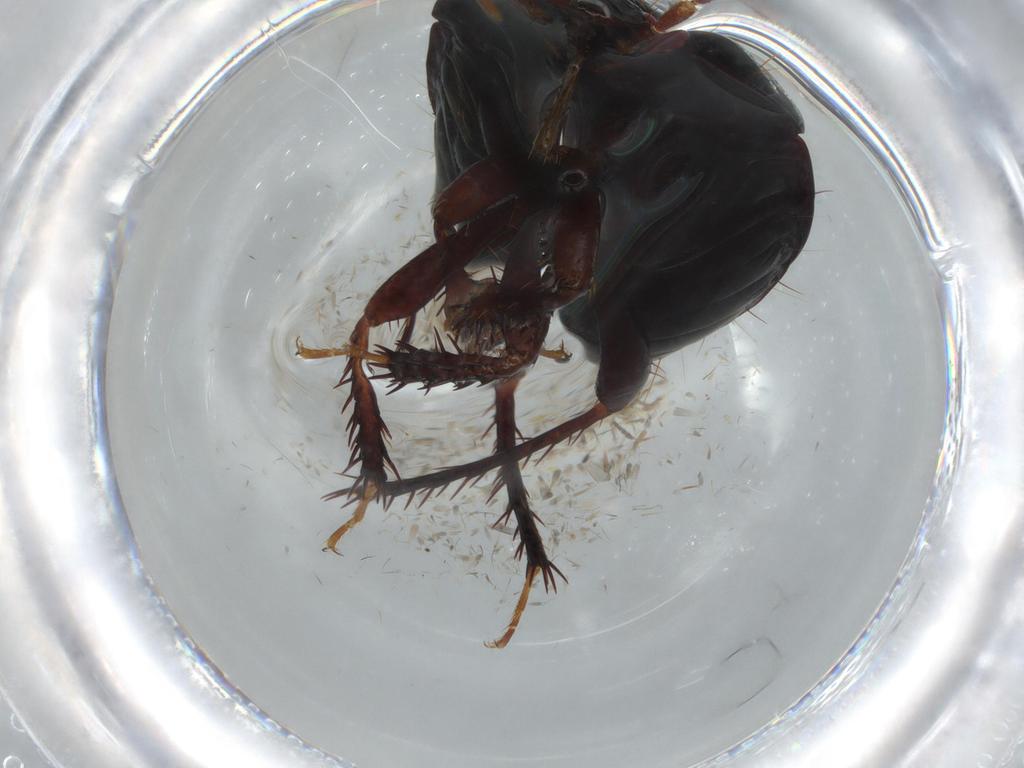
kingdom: Animalia
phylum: Arthropoda
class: Insecta
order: Hemiptera
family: Cydnidae
